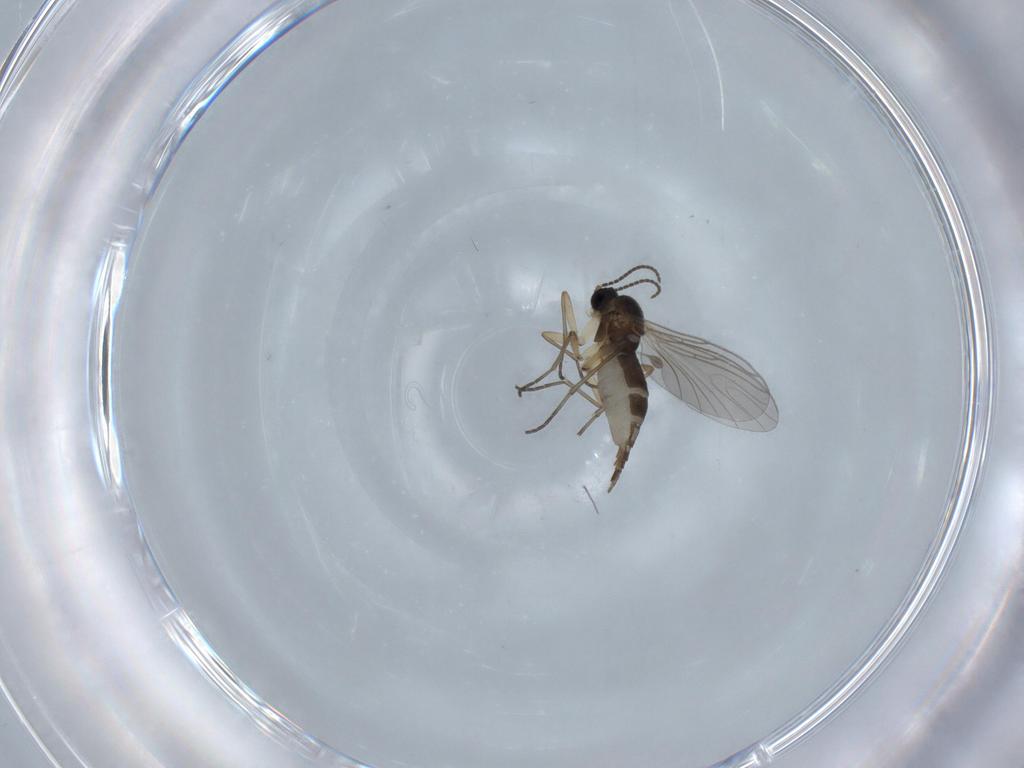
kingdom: Animalia
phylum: Arthropoda
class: Insecta
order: Diptera
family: Sciaridae
